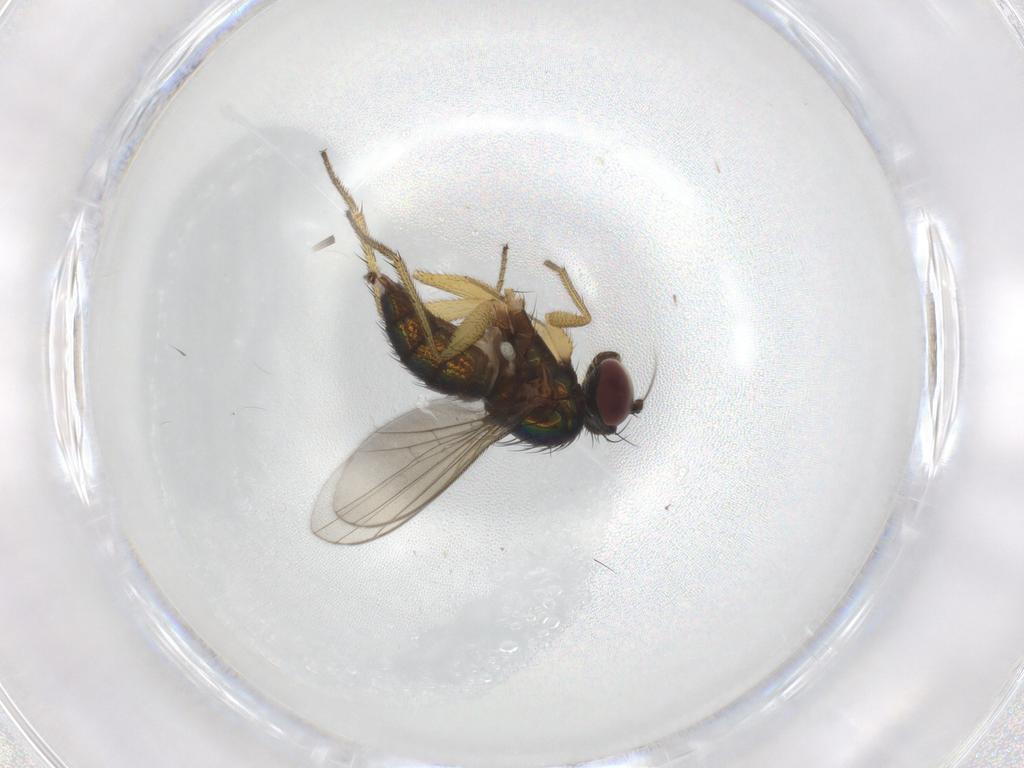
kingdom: Animalia
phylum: Arthropoda
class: Insecta
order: Diptera
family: Dolichopodidae
